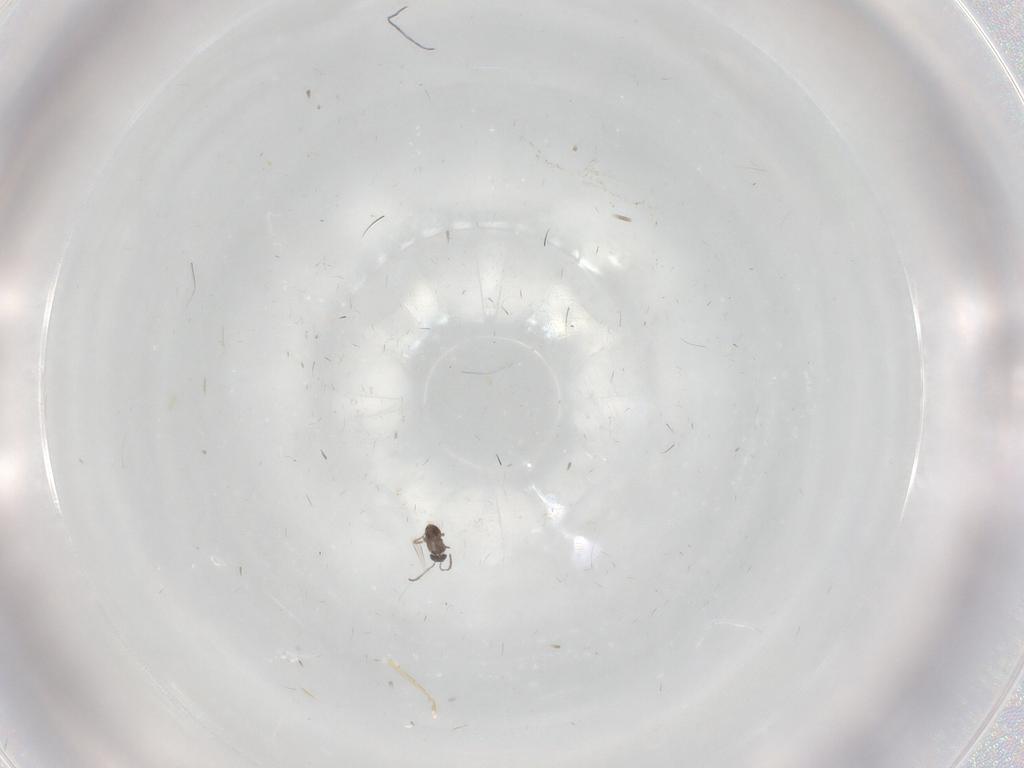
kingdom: Animalia
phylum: Arthropoda
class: Insecta
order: Hymenoptera
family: Mymaridae
